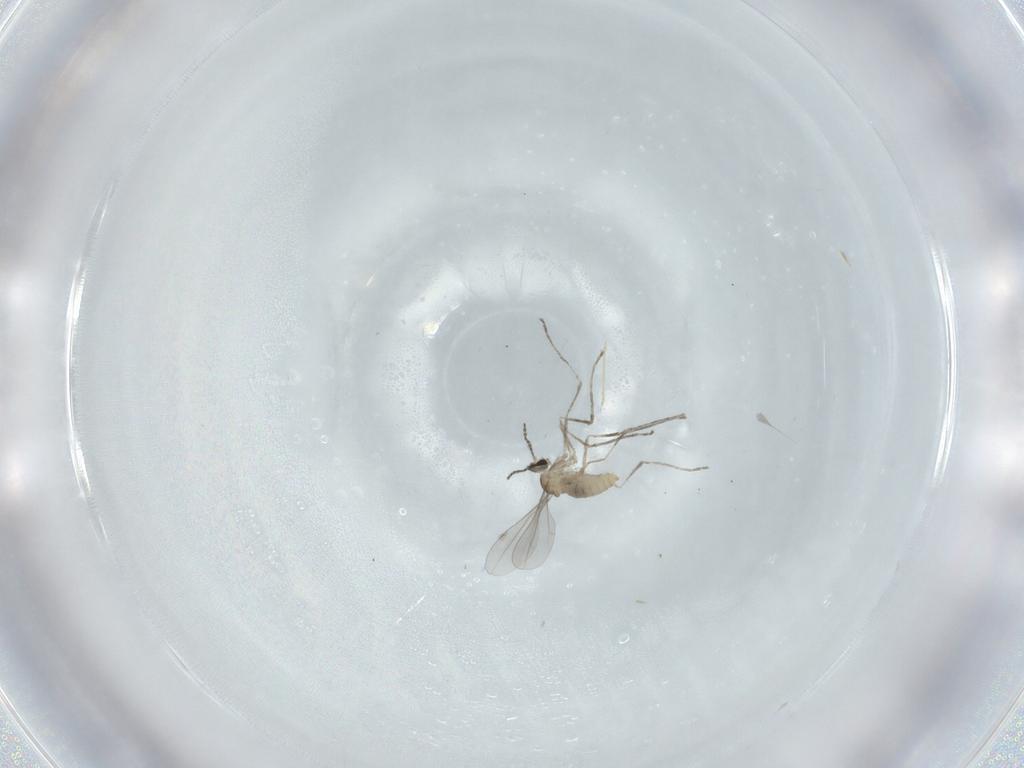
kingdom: Animalia
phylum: Arthropoda
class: Insecta
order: Diptera
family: Cecidomyiidae
